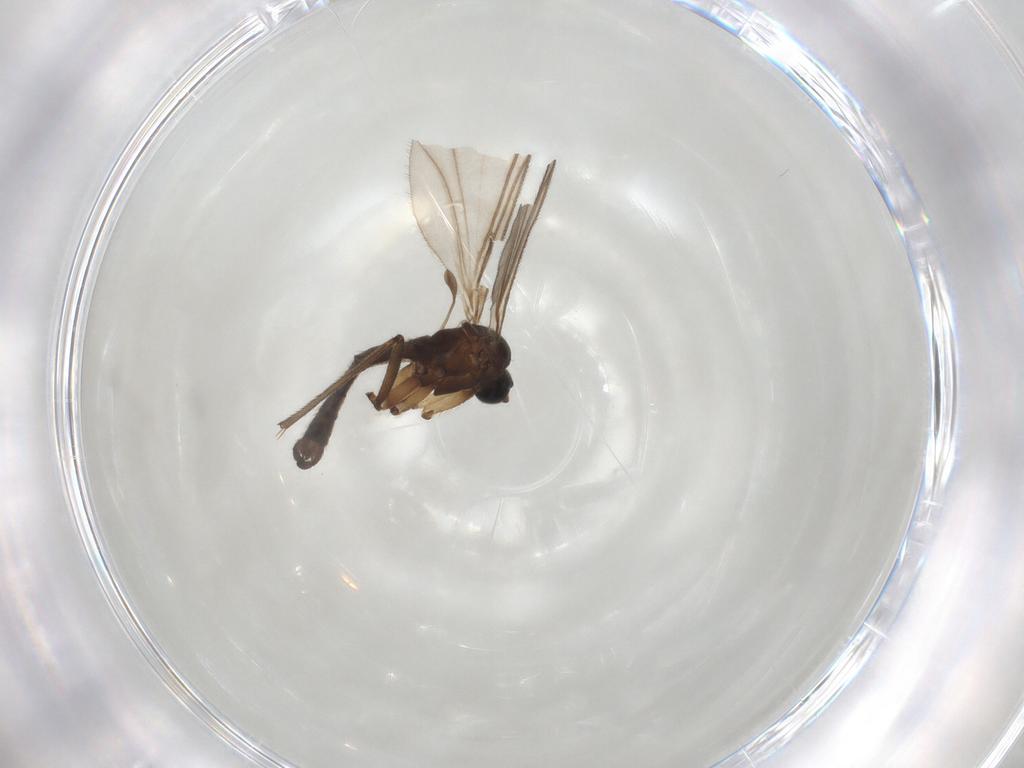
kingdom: Animalia
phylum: Arthropoda
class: Insecta
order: Diptera
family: Sciaridae
